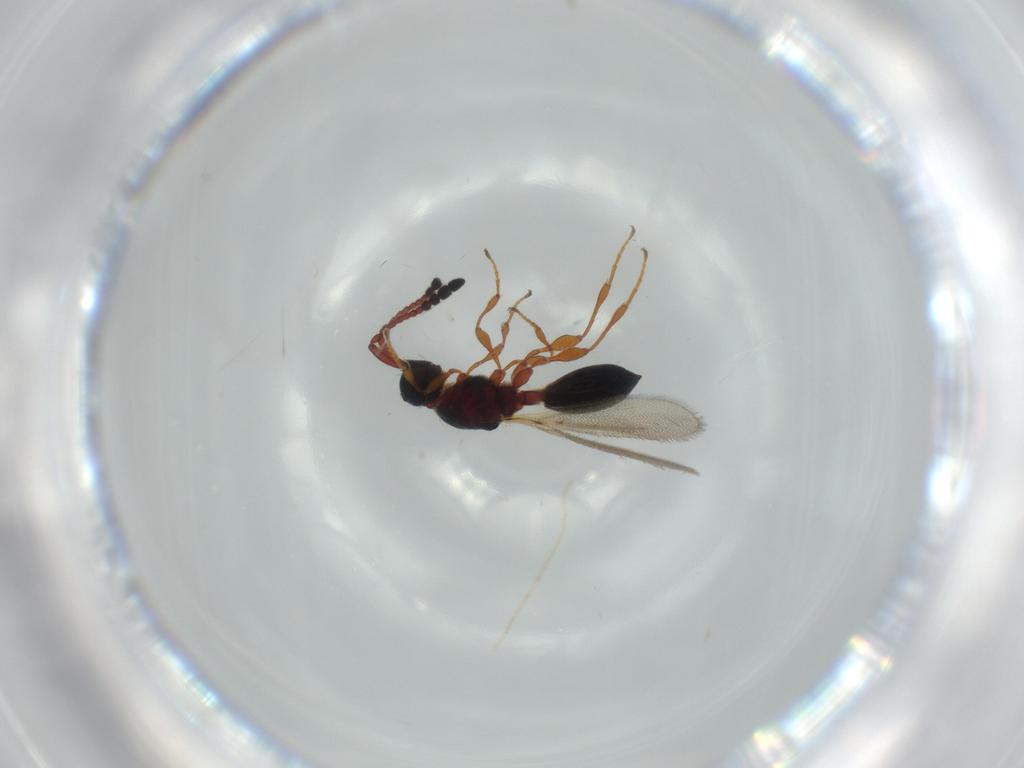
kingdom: Animalia
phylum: Arthropoda
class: Insecta
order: Hymenoptera
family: Diapriidae
